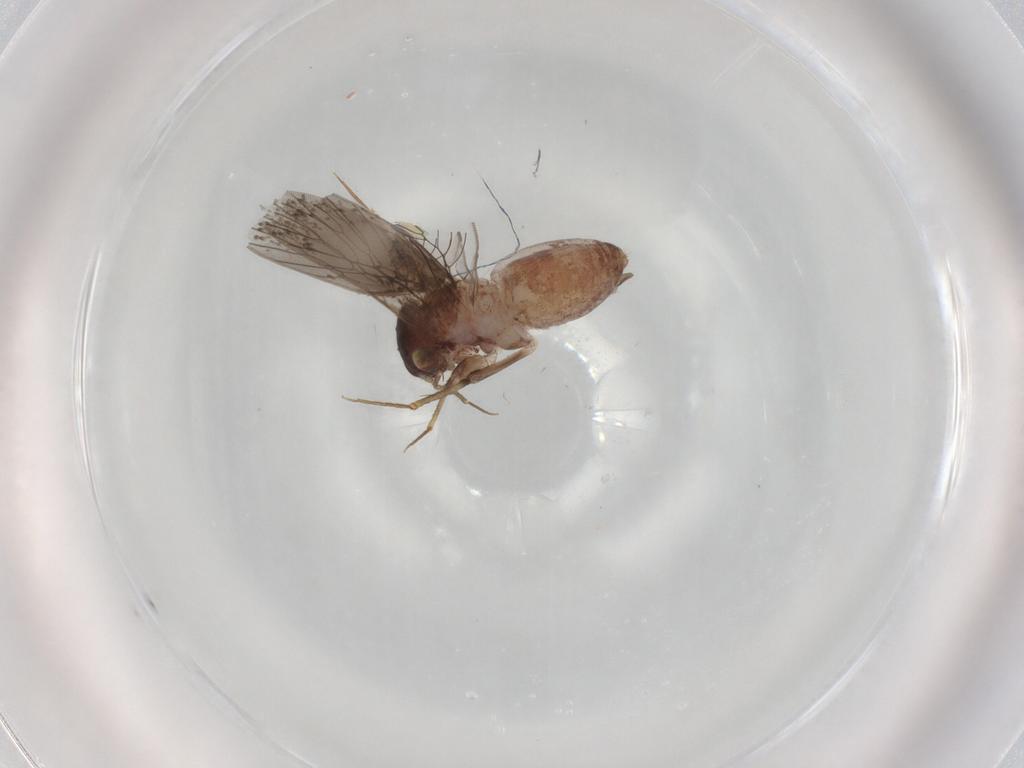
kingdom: Animalia
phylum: Arthropoda
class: Insecta
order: Psocodea
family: Lepidopsocidae
